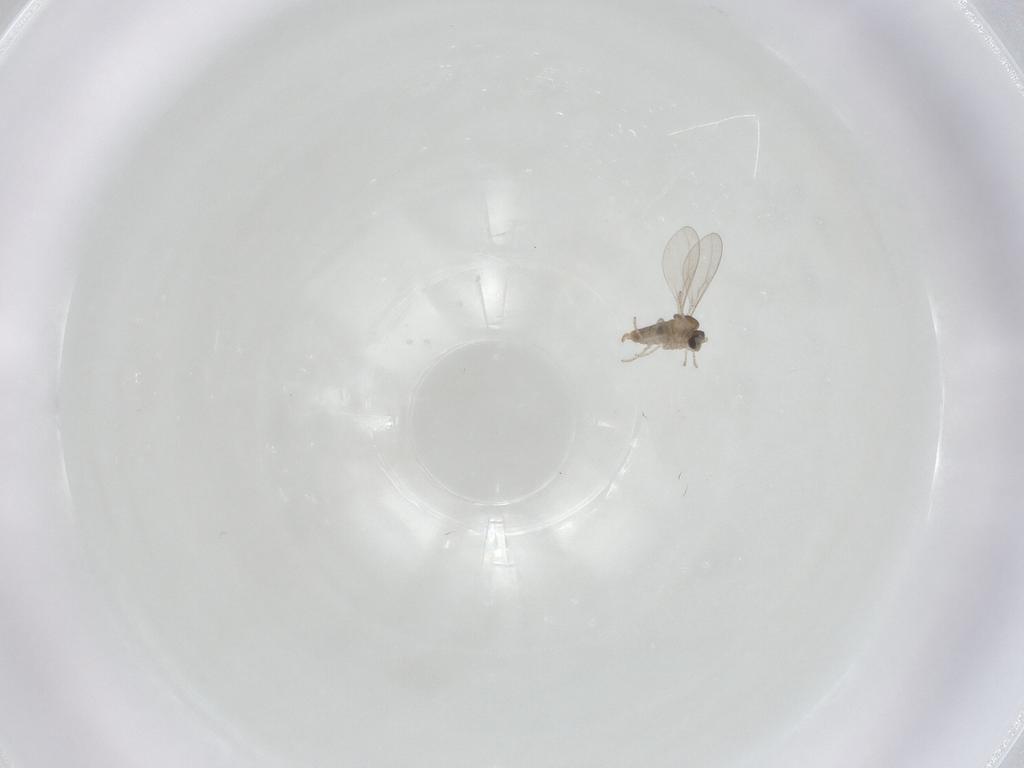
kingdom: Animalia
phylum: Arthropoda
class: Insecta
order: Diptera
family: Cecidomyiidae
